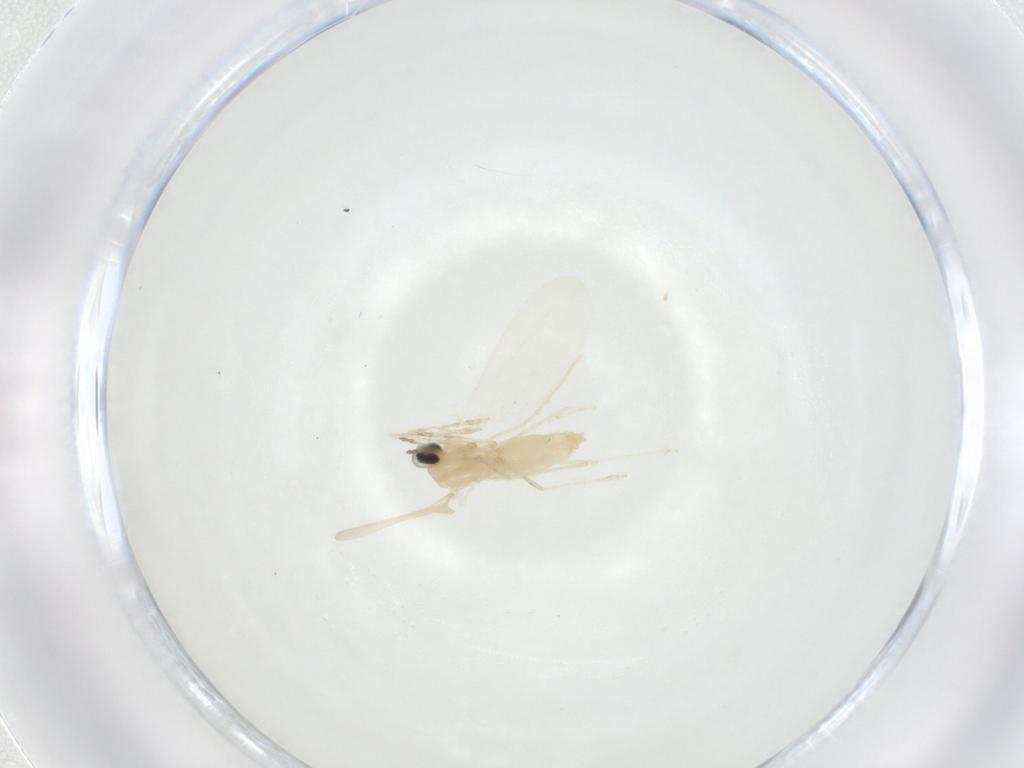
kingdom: Animalia
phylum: Arthropoda
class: Insecta
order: Diptera
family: Cecidomyiidae
